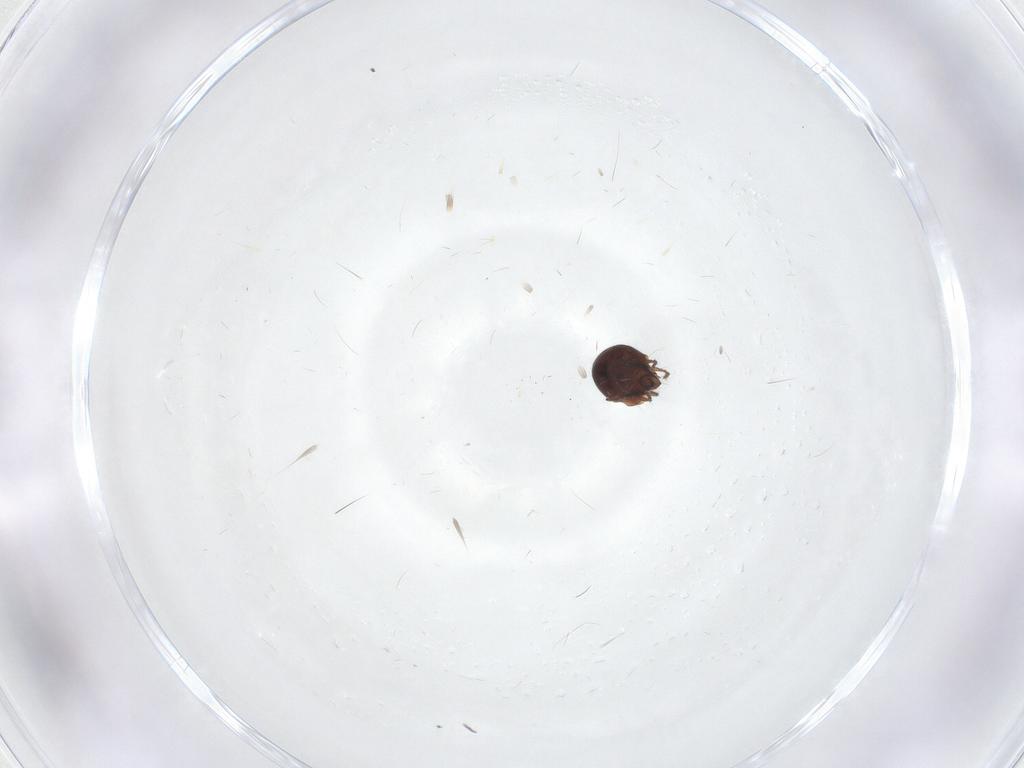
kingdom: Animalia
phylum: Arthropoda
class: Arachnida
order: Sarcoptiformes
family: Ceratozetidae
